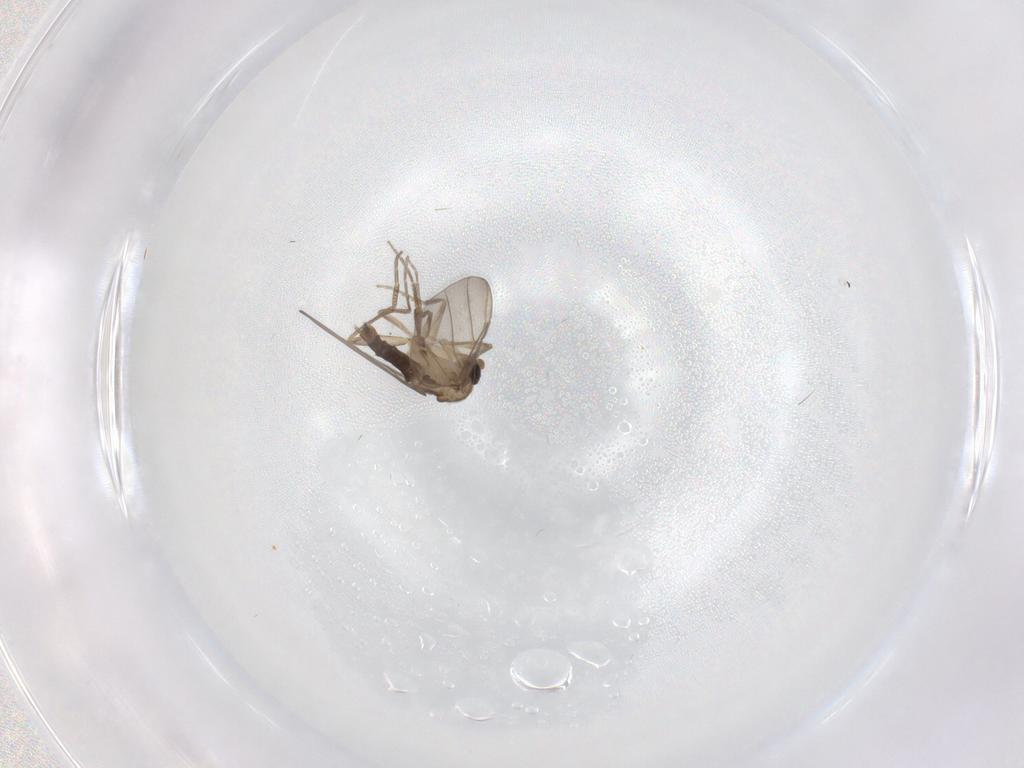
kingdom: Animalia
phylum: Arthropoda
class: Insecta
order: Diptera
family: Phoridae
